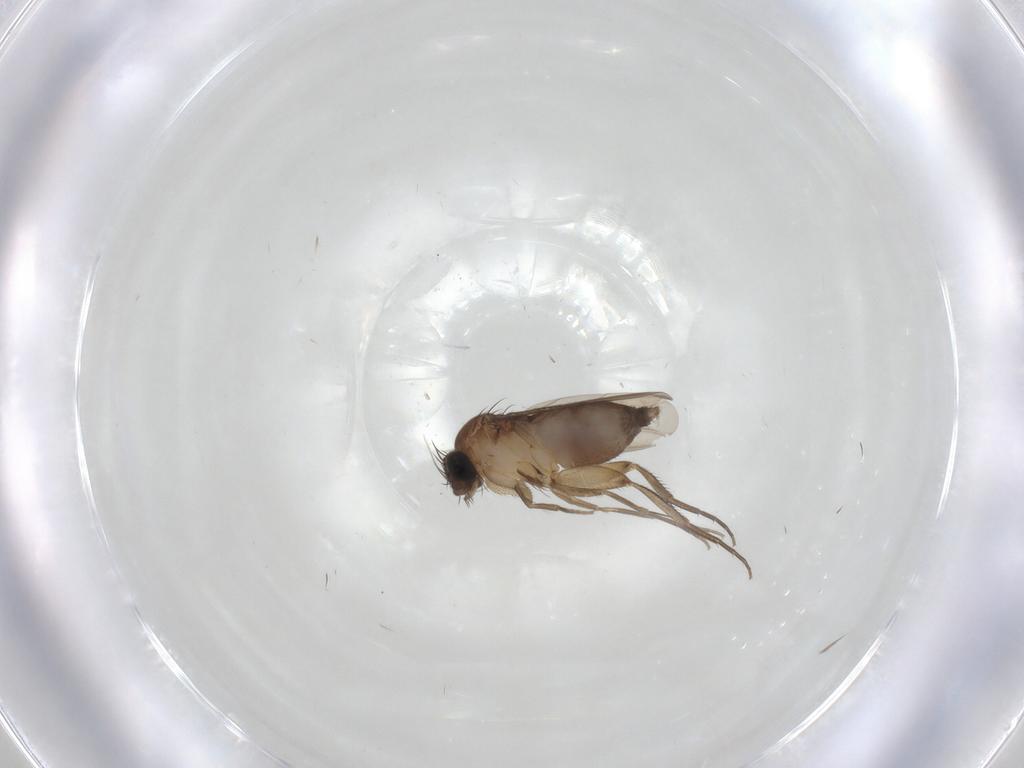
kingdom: Animalia
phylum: Arthropoda
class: Insecta
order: Diptera
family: Phoridae
